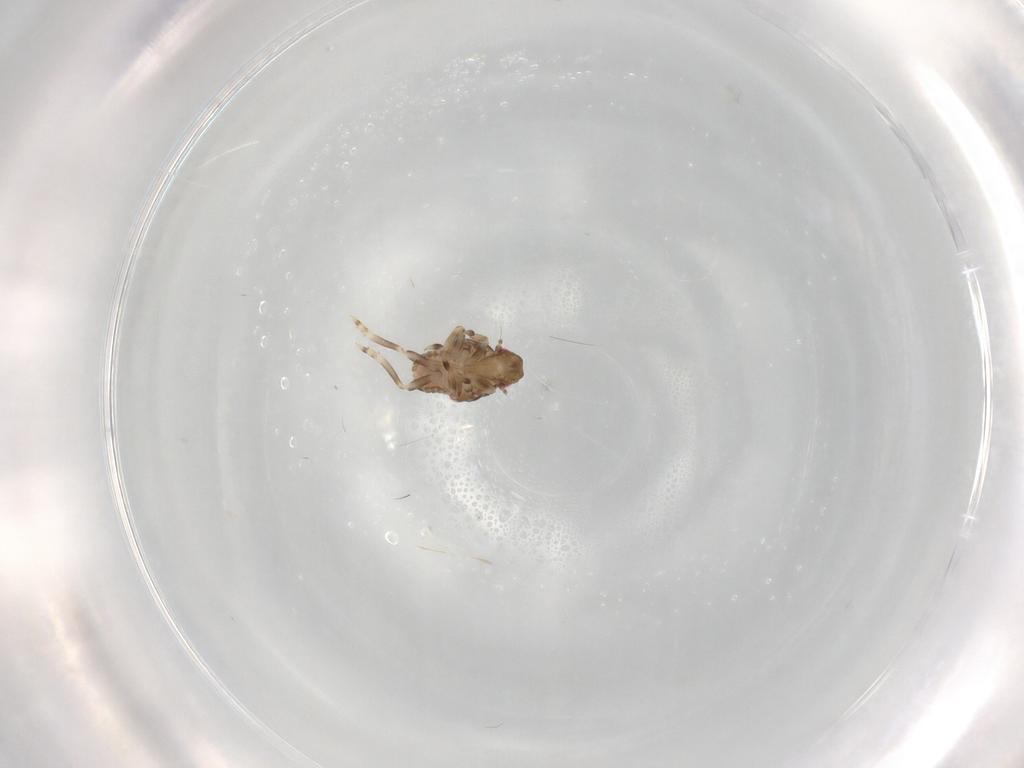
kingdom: Animalia
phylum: Arthropoda
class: Insecta
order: Hemiptera
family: Flatidae
